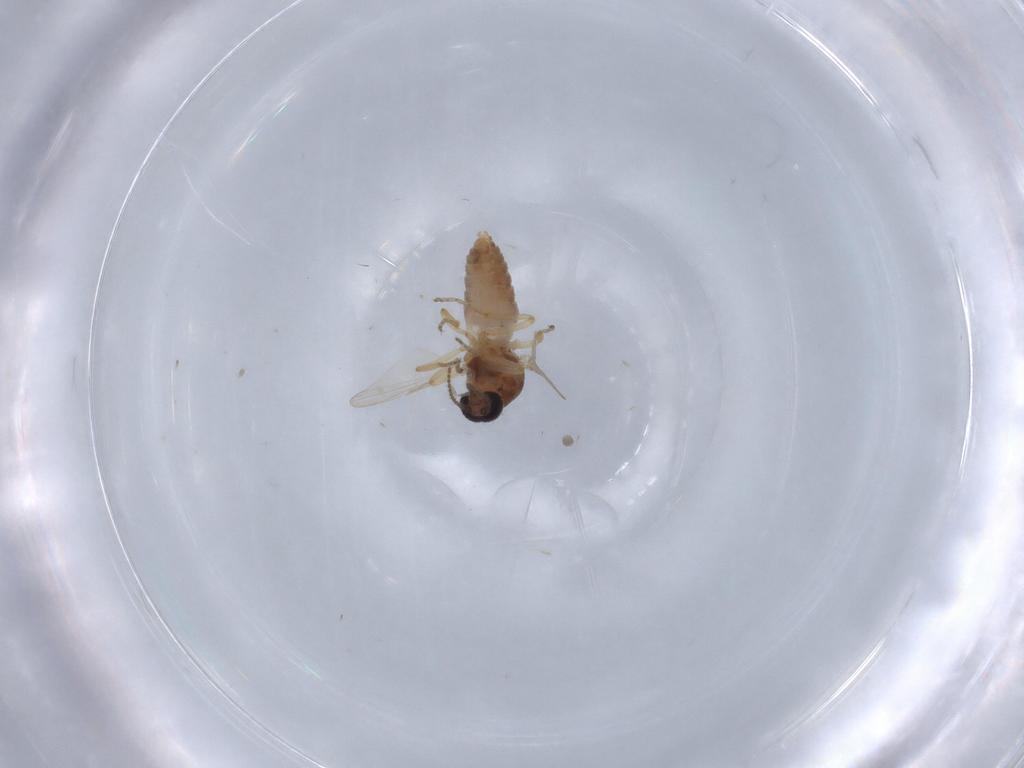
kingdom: Animalia
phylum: Arthropoda
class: Insecta
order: Diptera
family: Ceratopogonidae
